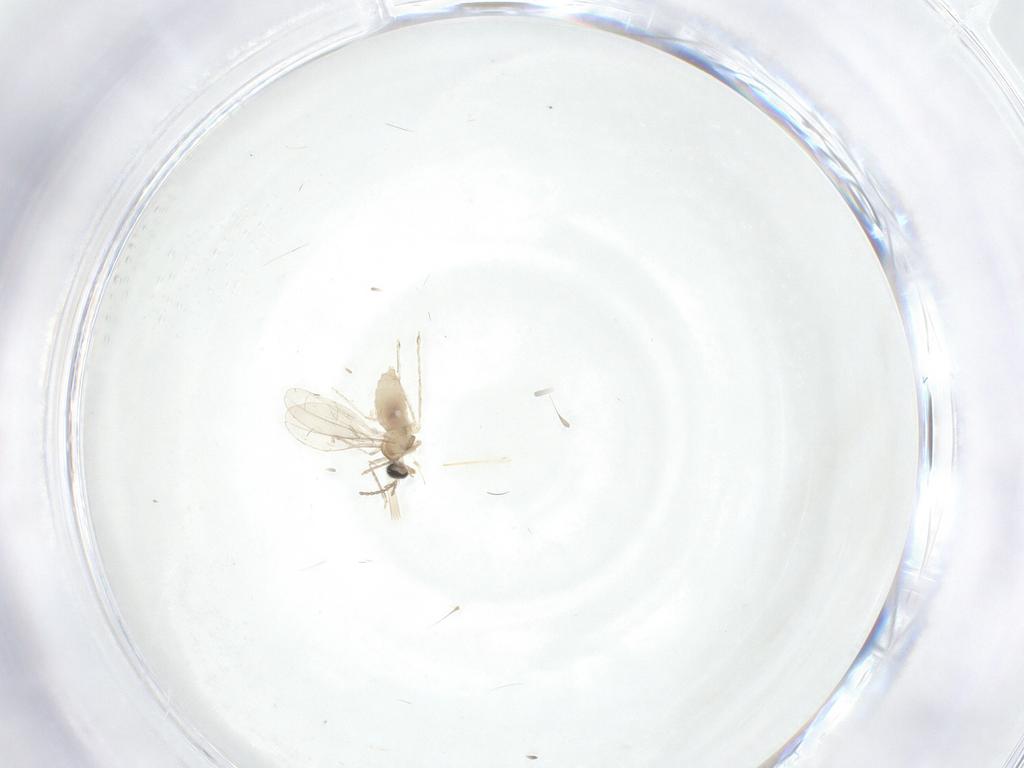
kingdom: Animalia
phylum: Arthropoda
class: Insecta
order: Diptera
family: Cecidomyiidae
